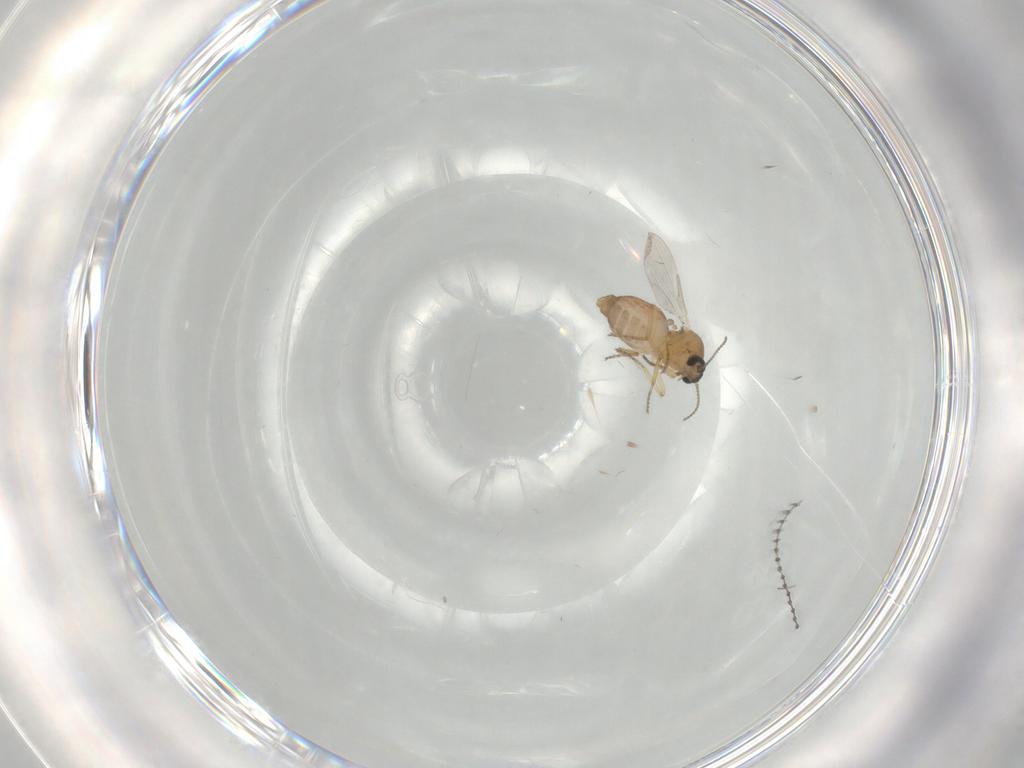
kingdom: Animalia
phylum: Arthropoda
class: Insecta
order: Diptera
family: Ceratopogonidae
